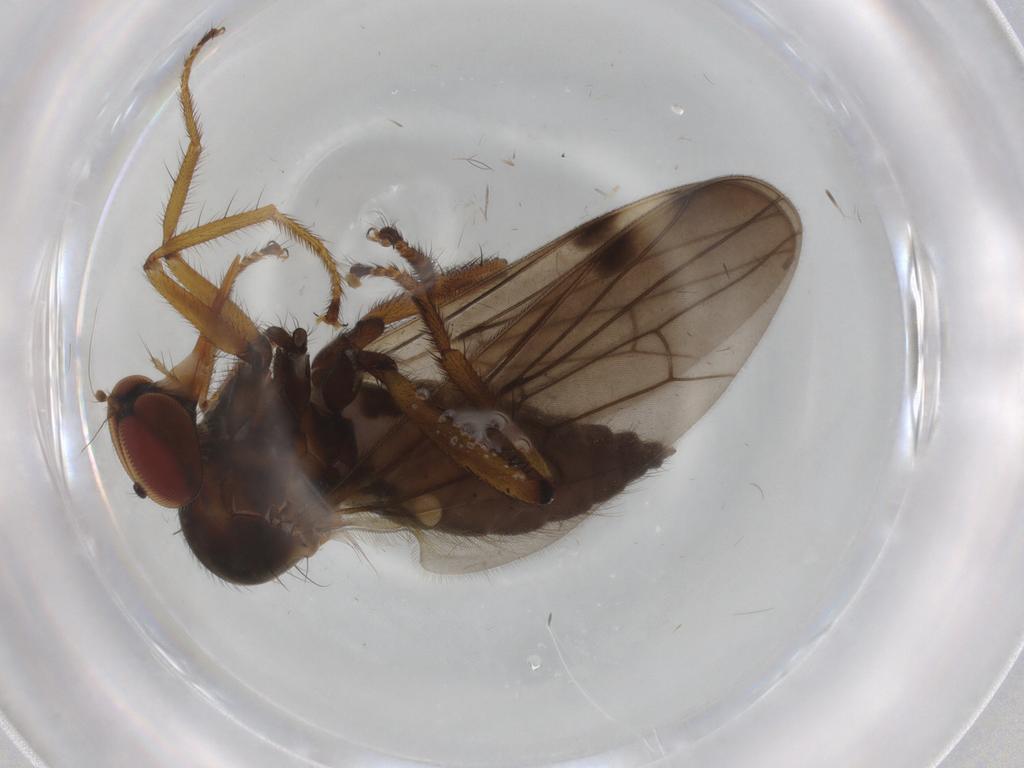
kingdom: Animalia
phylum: Arthropoda
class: Insecta
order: Diptera
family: Hybotidae
